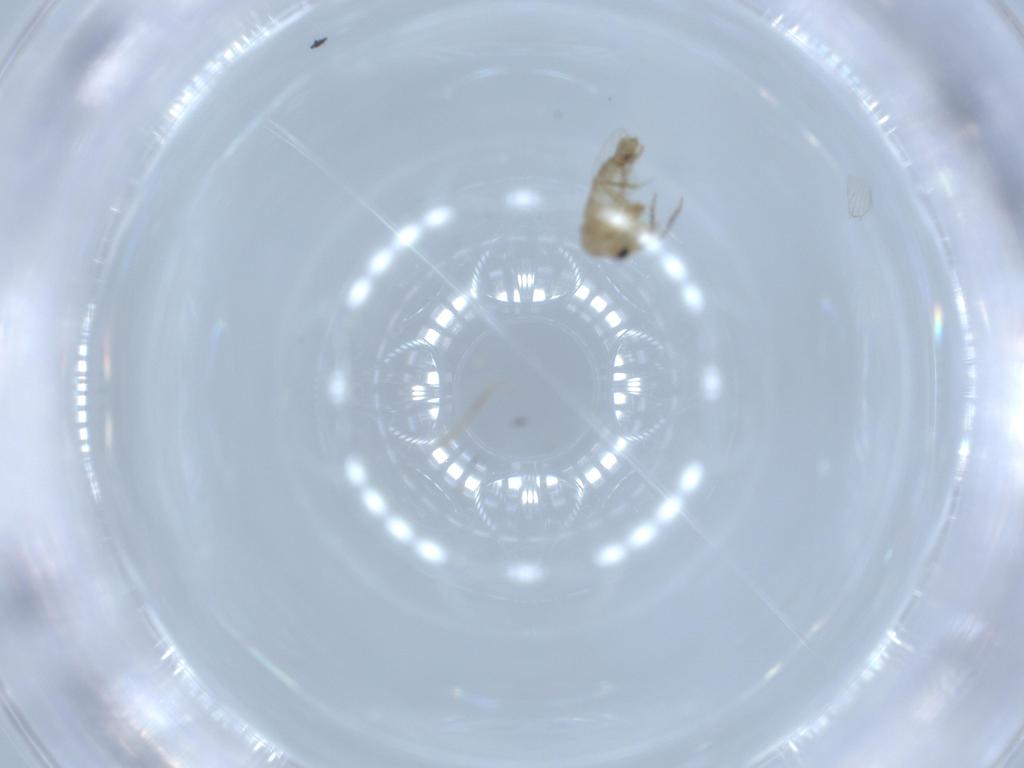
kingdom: Animalia
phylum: Arthropoda
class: Insecta
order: Diptera
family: Psychodidae
